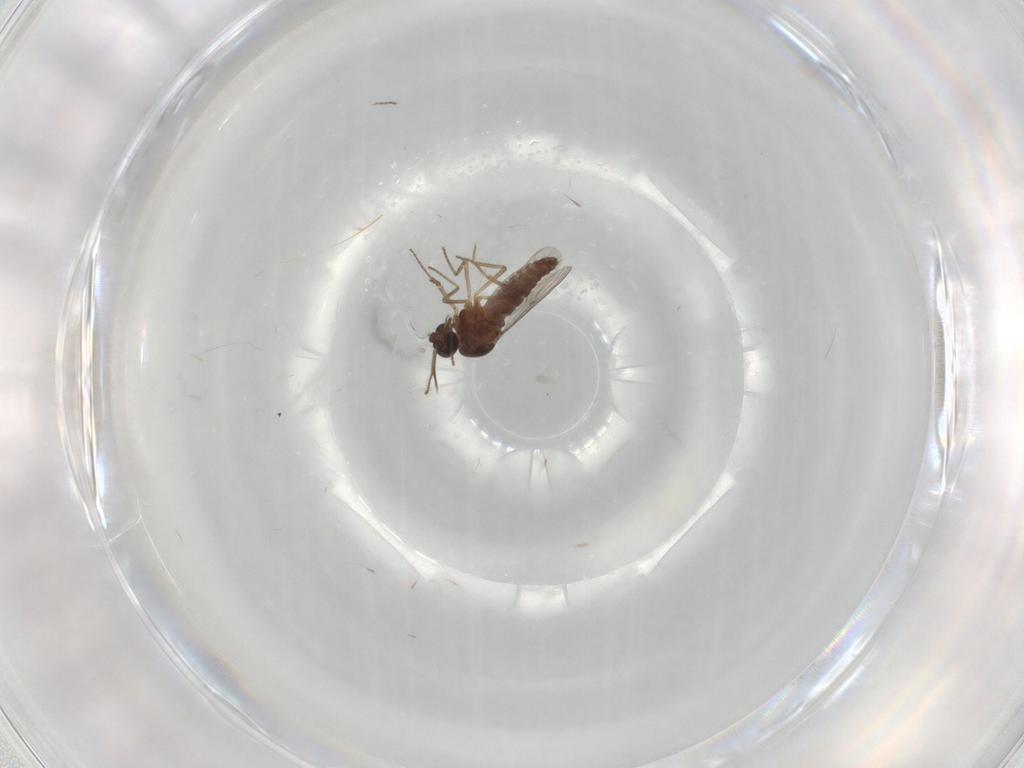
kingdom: Animalia
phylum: Arthropoda
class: Insecta
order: Diptera
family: Ceratopogonidae
